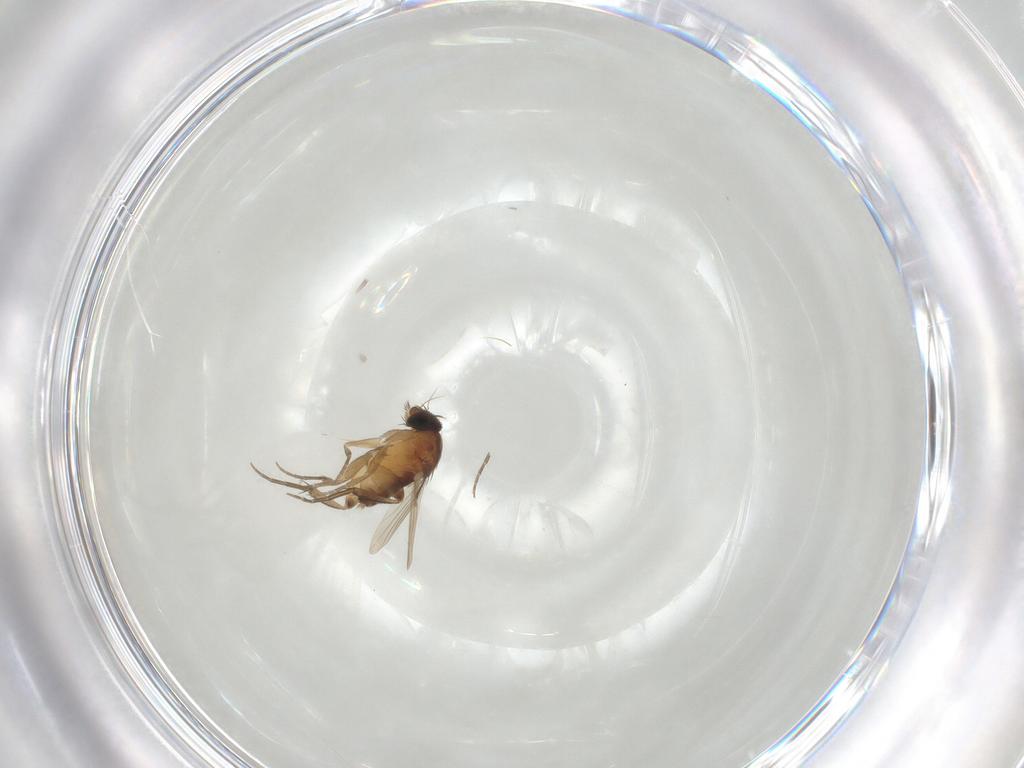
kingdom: Animalia
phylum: Arthropoda
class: Insecta
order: Diptera
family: Phoridae
